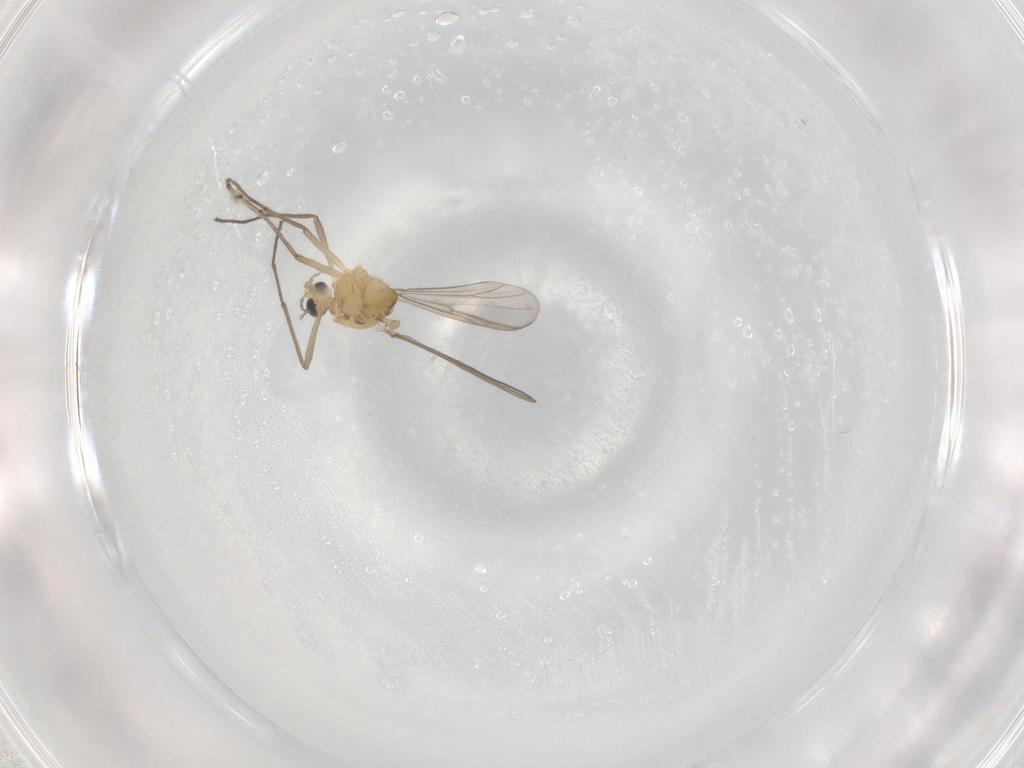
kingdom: Animalia
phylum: Arthropoda
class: Insecta
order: Diptera
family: Chironomidae
